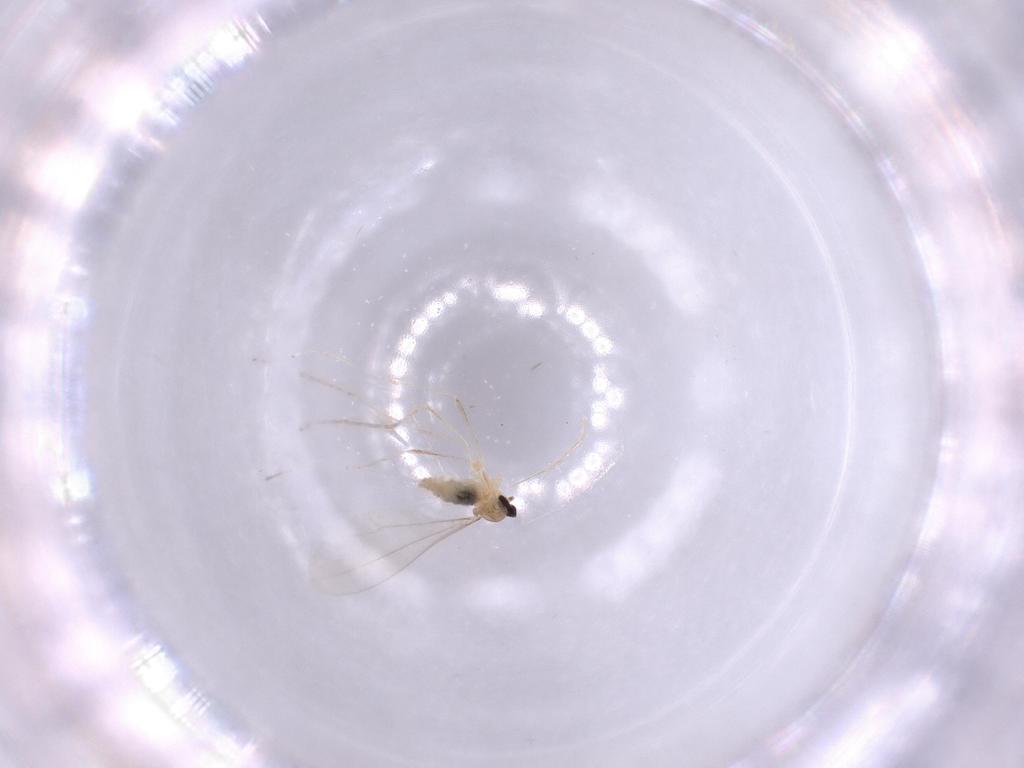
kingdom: Animalia
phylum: Arthropoda
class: Insecta
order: Diptera
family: Cecidomyiidae
